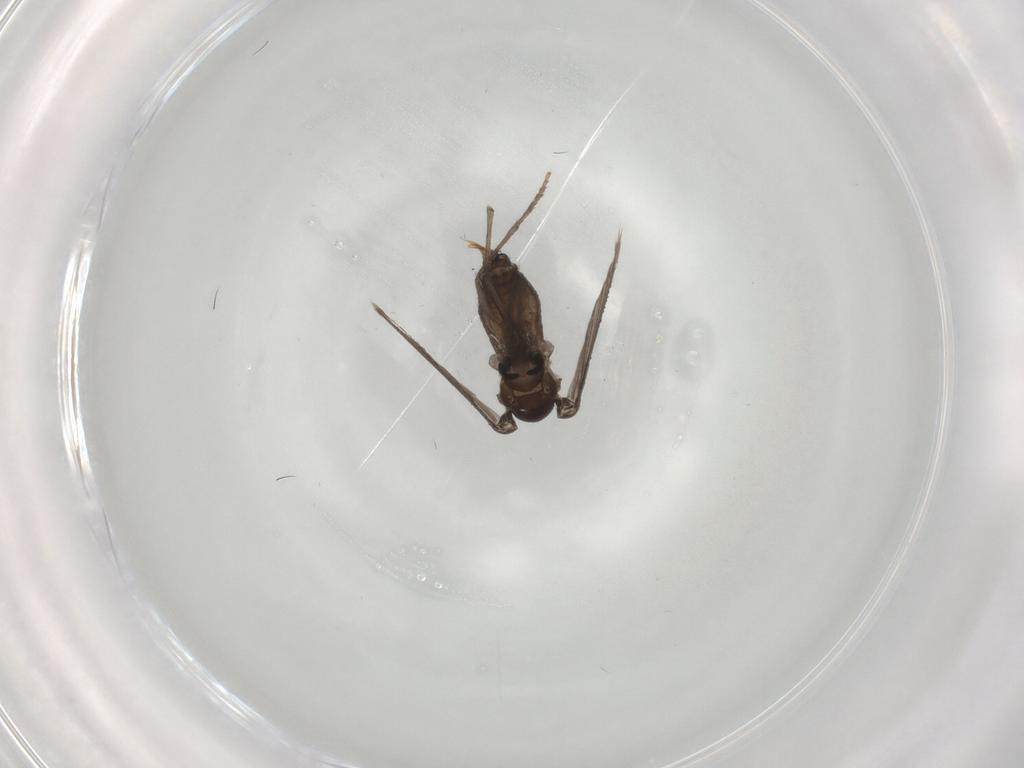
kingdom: Animalia
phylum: Arthropoda
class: Insecta
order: Diptera
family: Psychodidae
